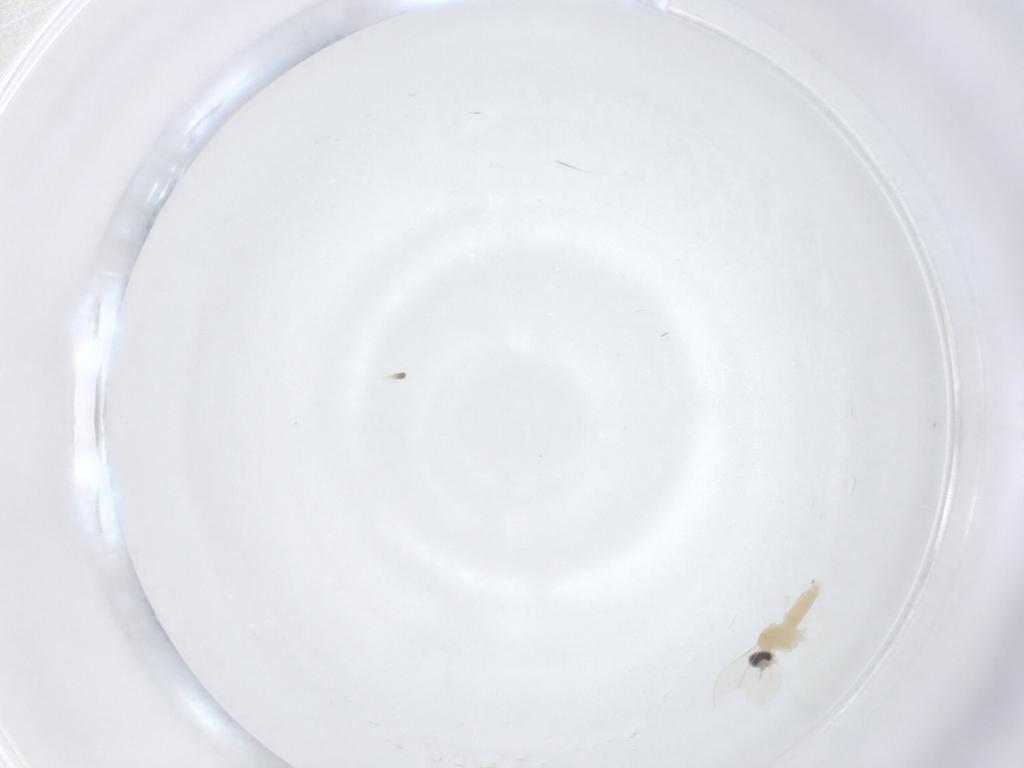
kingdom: Animalia
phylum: Arthropoda
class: Insecta
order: Diptera
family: Cecidomyiidae
